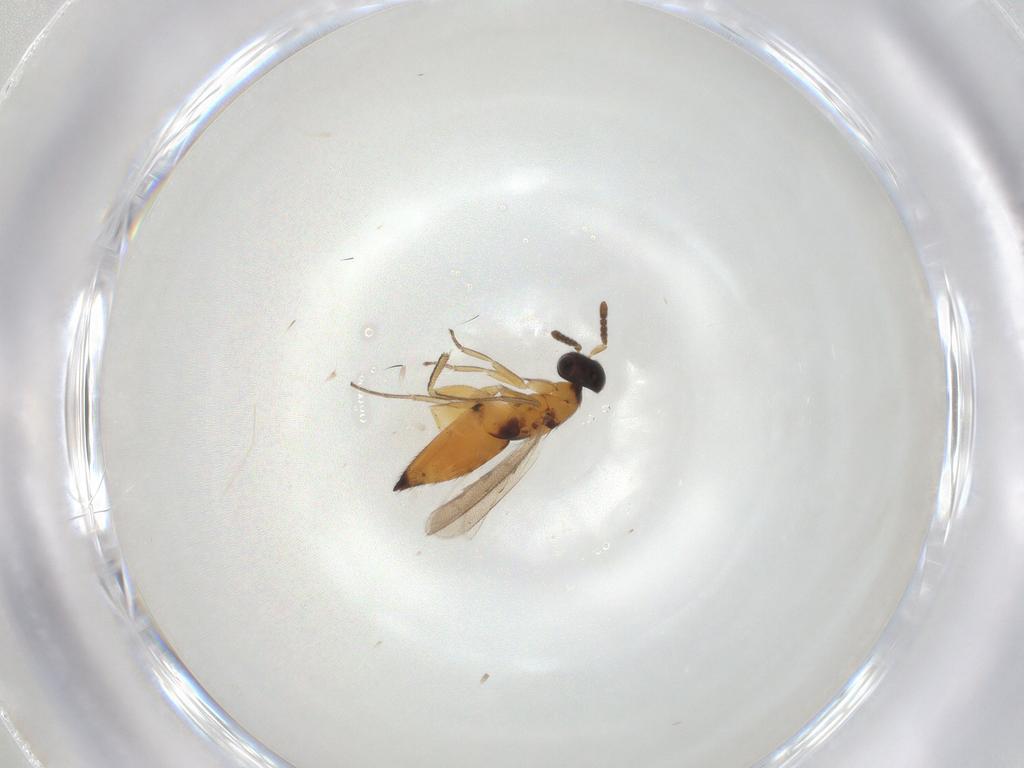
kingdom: Animalia
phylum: Arthropoda
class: Insecta
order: Hymenoptera
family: Eulophidae
